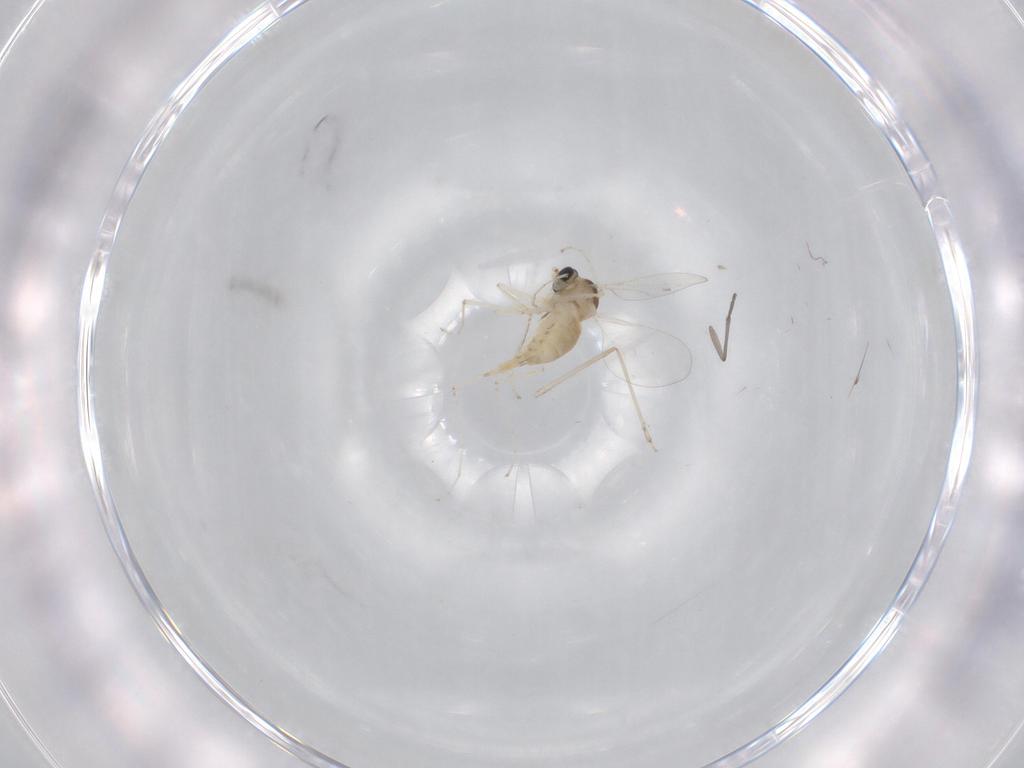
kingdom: Animalia
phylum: Arthropoda
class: Insecta
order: Diptera
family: Cecidomyiidae
